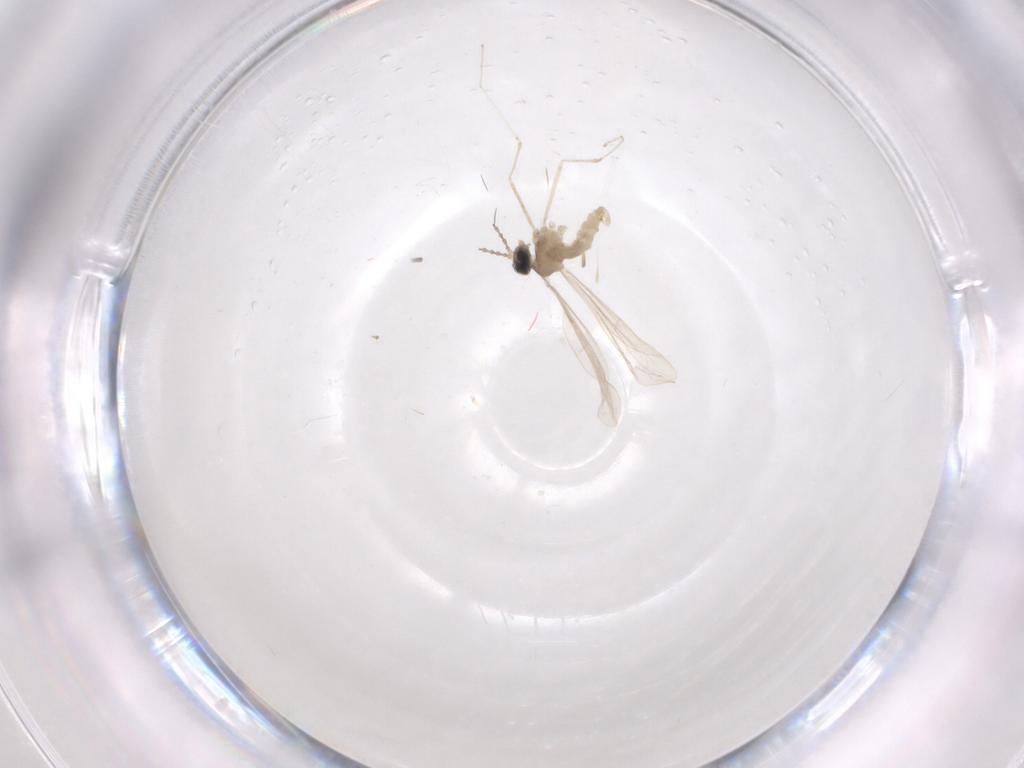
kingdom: Animalia
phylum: Arthropoda
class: Insecta
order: Diptera
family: Cecidomyiidae
